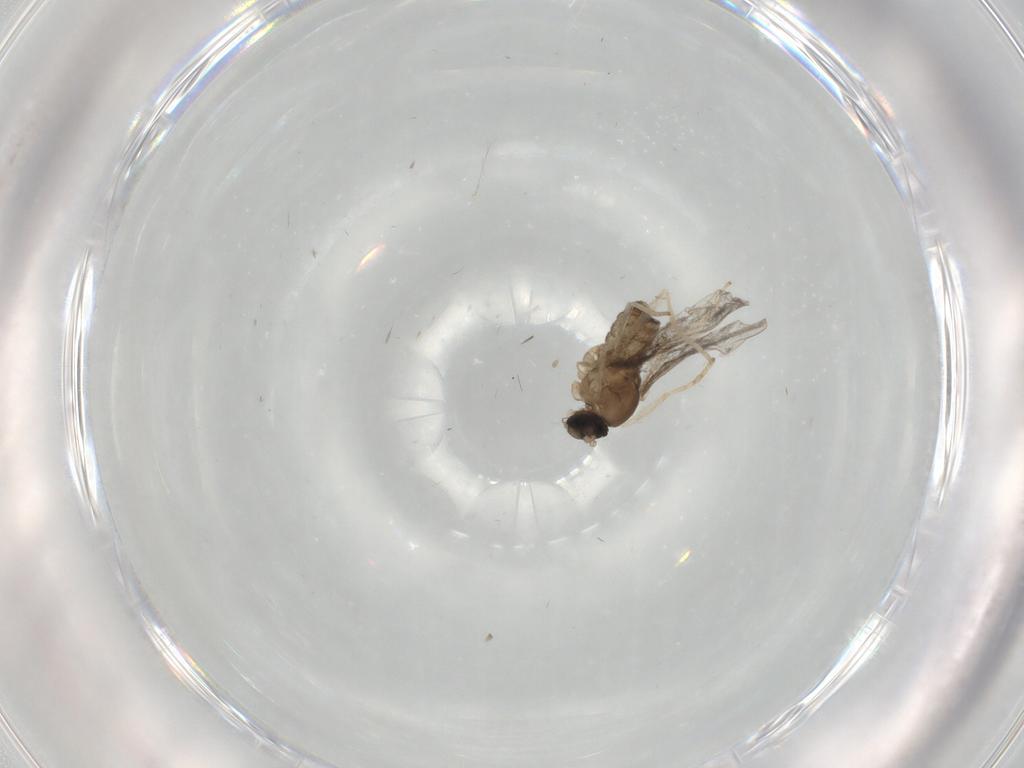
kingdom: Animalia
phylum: Arthropoda
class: Insecta
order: Diptera
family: Cecidomyiidae
